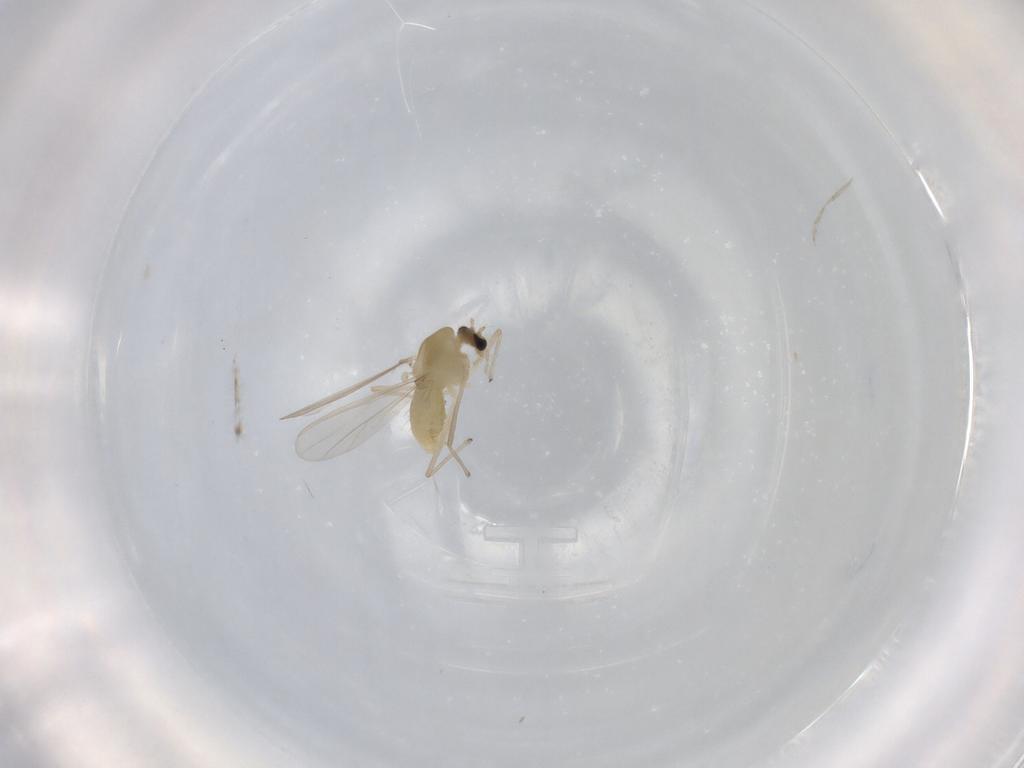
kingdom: Animalia
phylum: Arthropoda
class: Insecta
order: Diptera
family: Chironomidae
